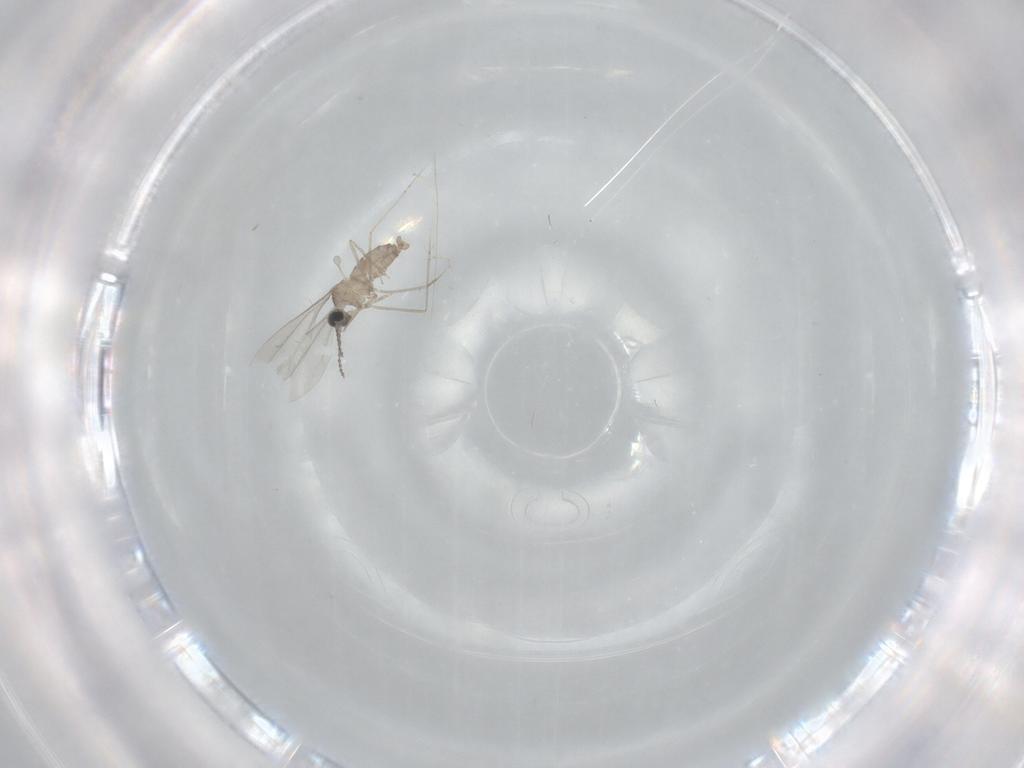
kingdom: Animalia
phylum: Arthropoda
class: Insecta
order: Diptera
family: Cecidomyiidae
